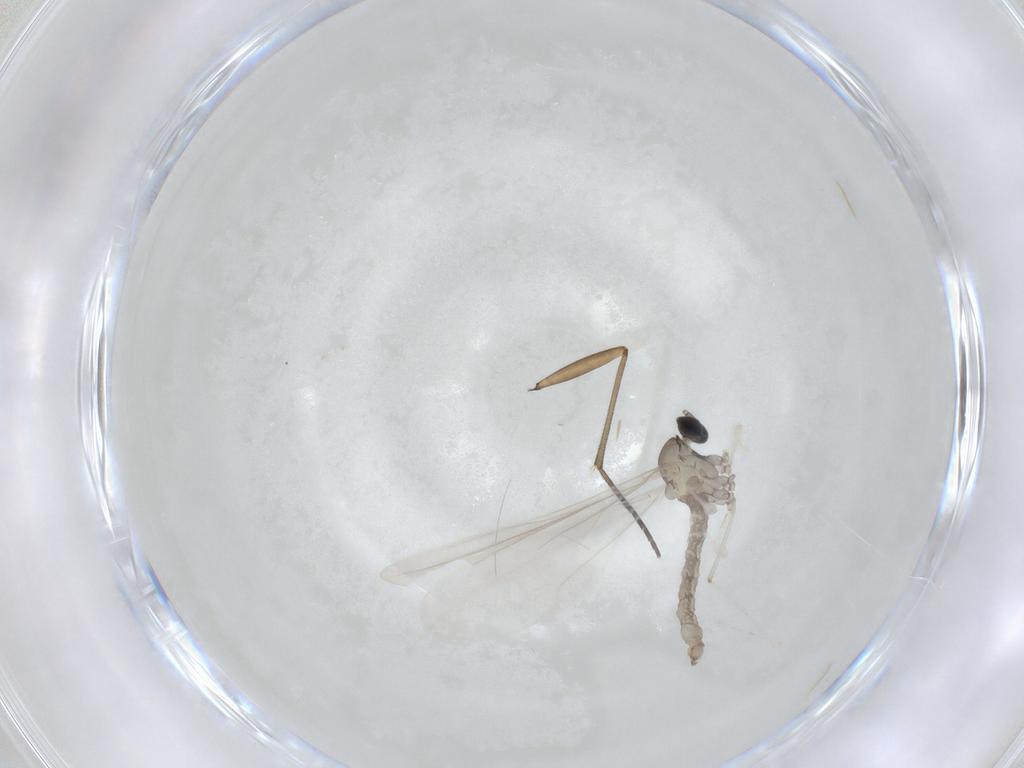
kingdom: Animalia
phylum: Arthropoda
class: Insecta
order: Diptera
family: Sciaridae
